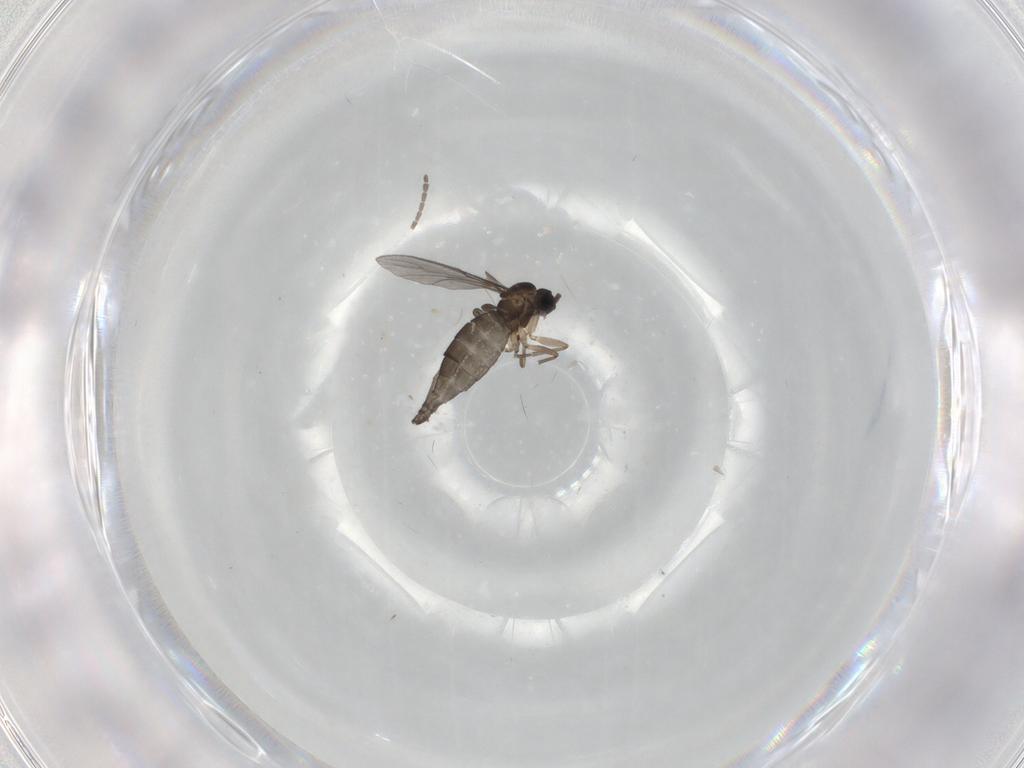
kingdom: Animalia
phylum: Arthropoda
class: Insecta
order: Diptera
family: Sciaridae
